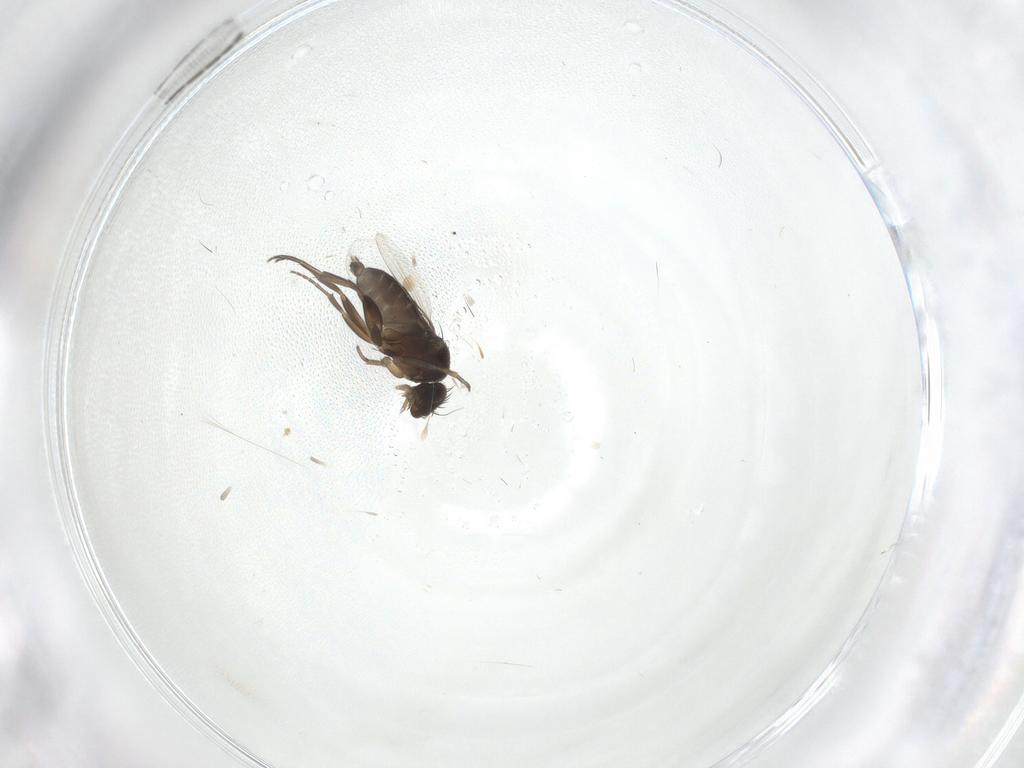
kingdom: Animalia
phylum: Arthropoda
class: Insecta
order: Diptera
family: Phoridae
